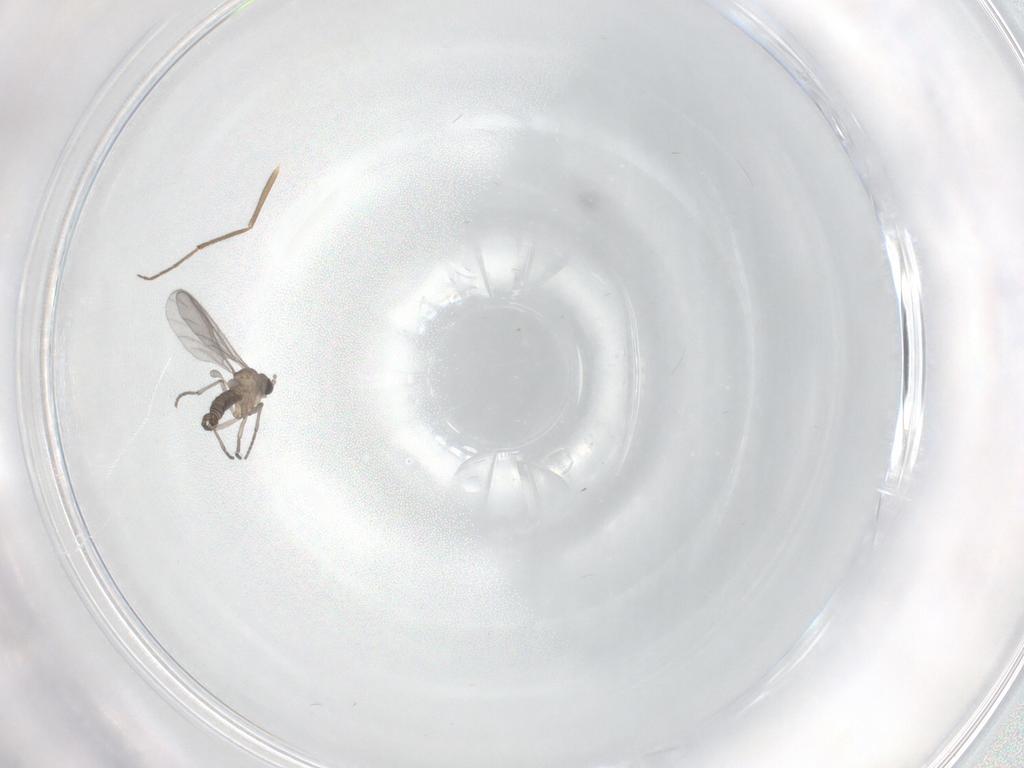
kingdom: Animalia
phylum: Arthropoda
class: Insecta
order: Diptera
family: Sciaridae
